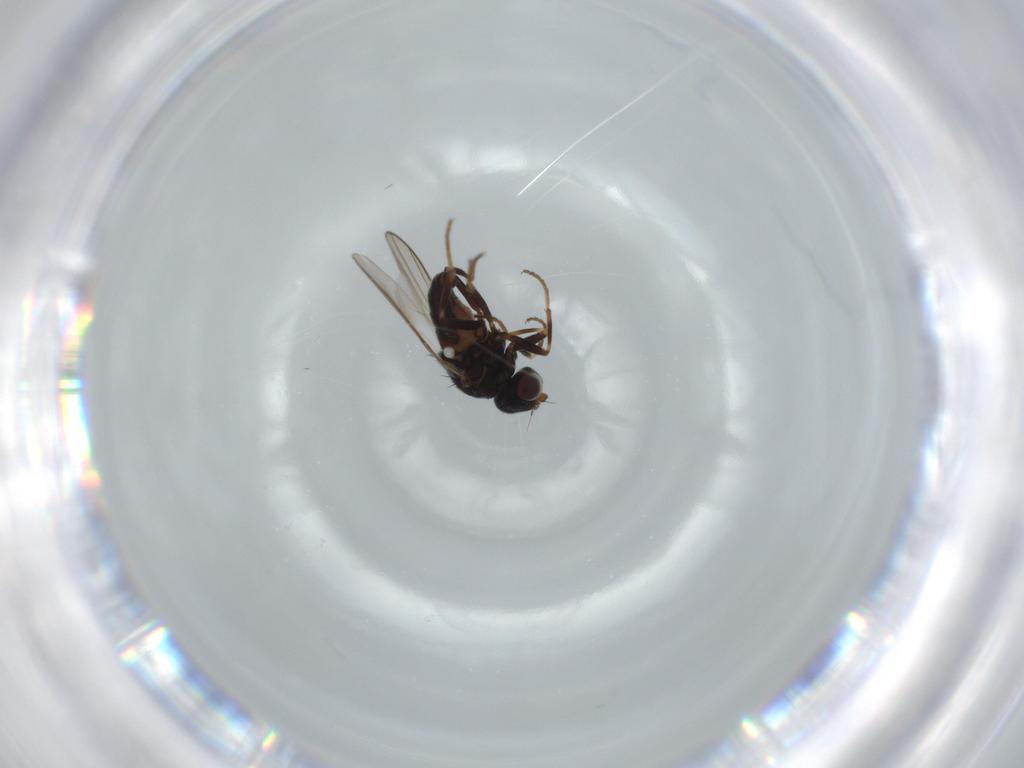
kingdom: Animalia
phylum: Arthropoda
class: Insecta
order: Diptera
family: Chloropidae
